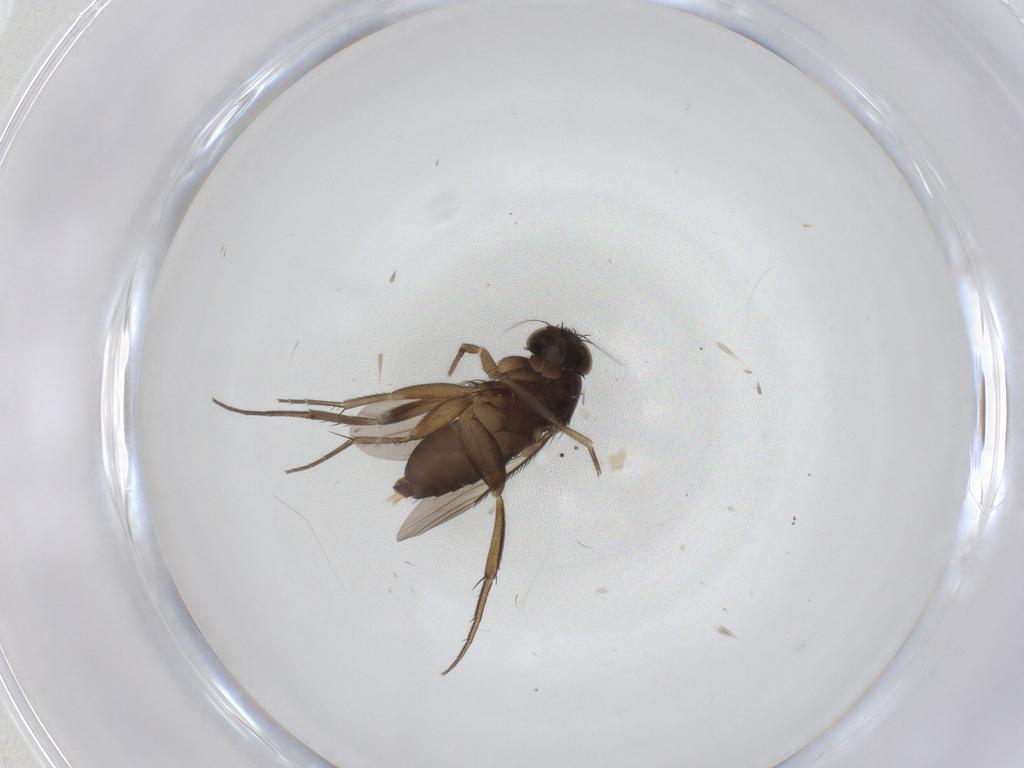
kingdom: Animalia
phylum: Arthropoda
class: Insecta
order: Diptera
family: Phoridae
